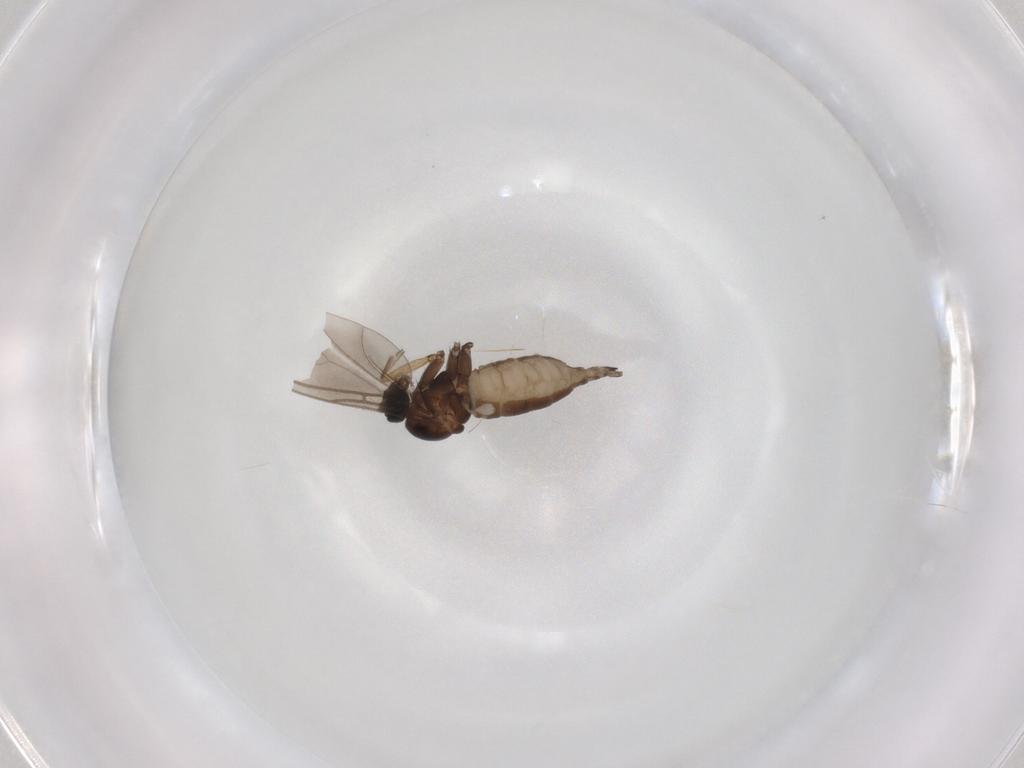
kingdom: Animalia
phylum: Arthropoda
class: Insecta
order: Diptera
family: Sciaridae
